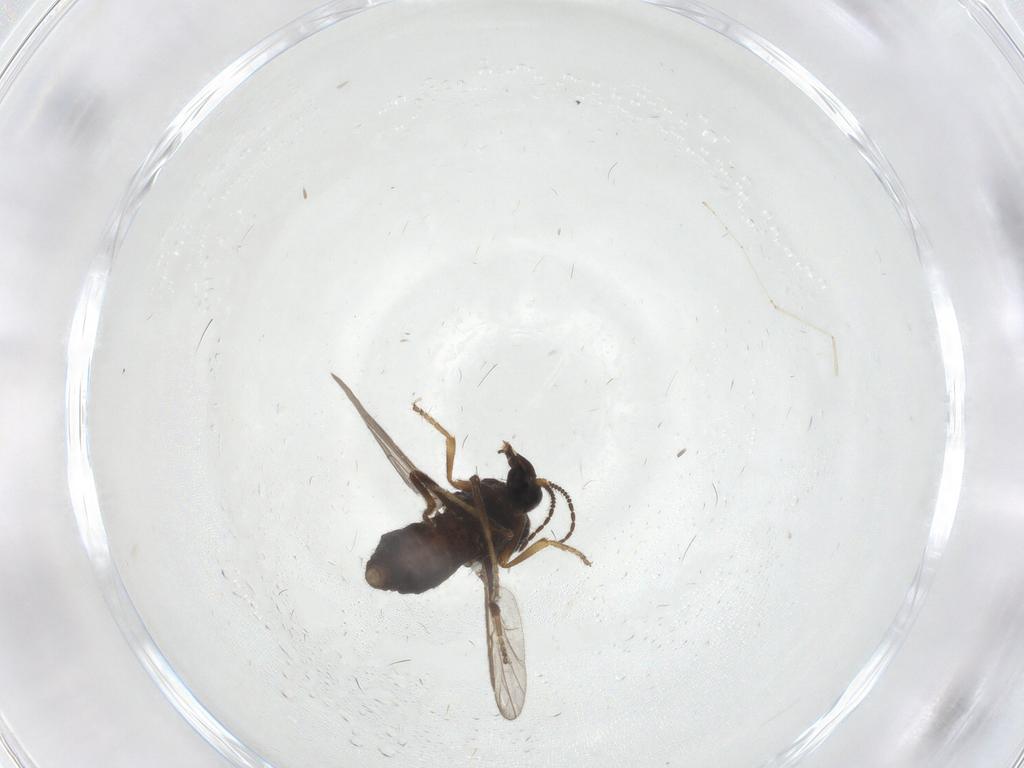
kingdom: Animalia
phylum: Arthropoda
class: Insecta
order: Diptera
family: Ceratopogonidae
